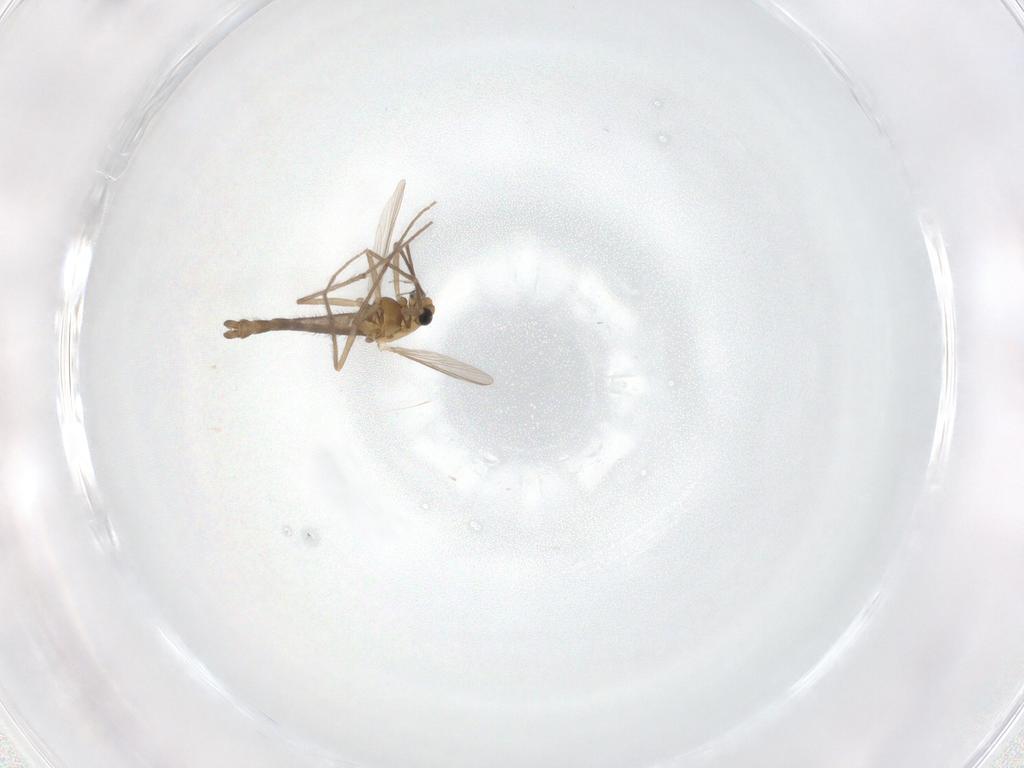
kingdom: Animalia
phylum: Arthropoda
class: Insecta
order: Diptera
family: Chironomidae
